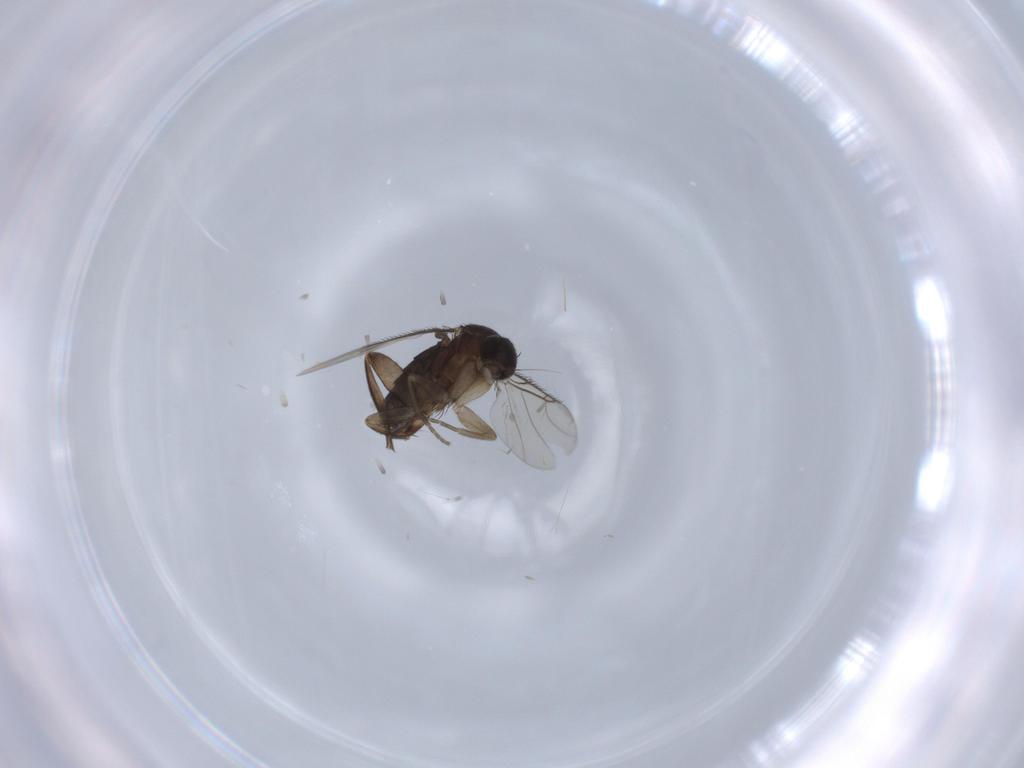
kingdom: Animalia
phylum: Arthropoda
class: Insecta
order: Diptera
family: Phoridae
